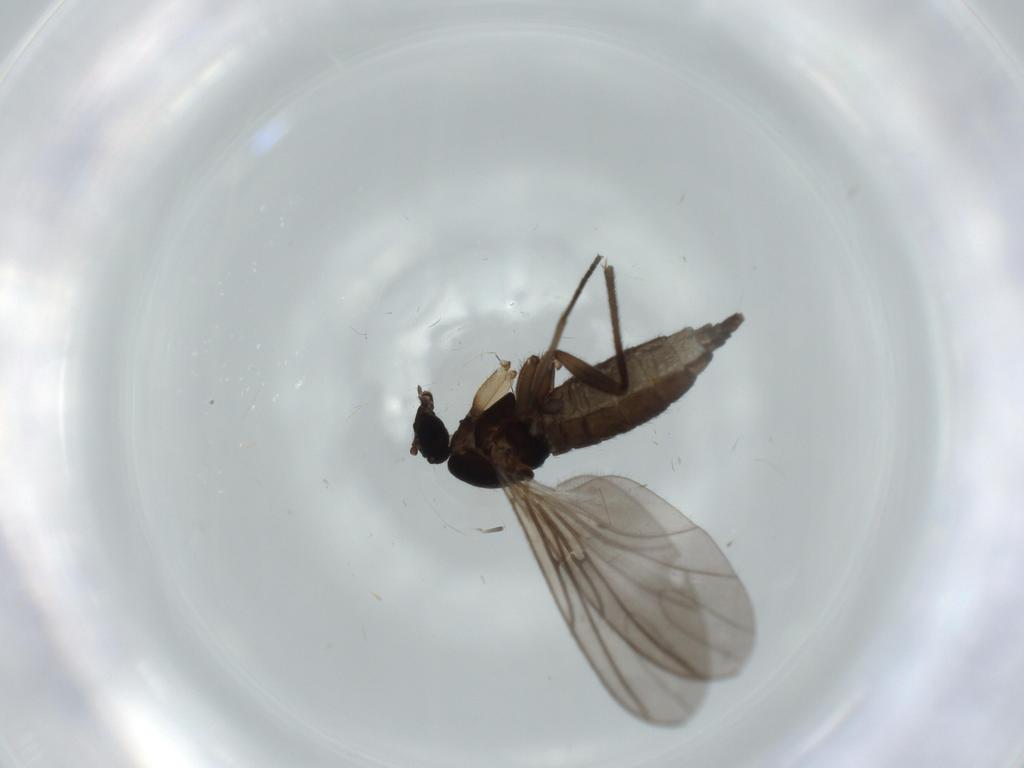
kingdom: Animalia
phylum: Arthropoda
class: Insecta
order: Diptera
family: Sciaridae
